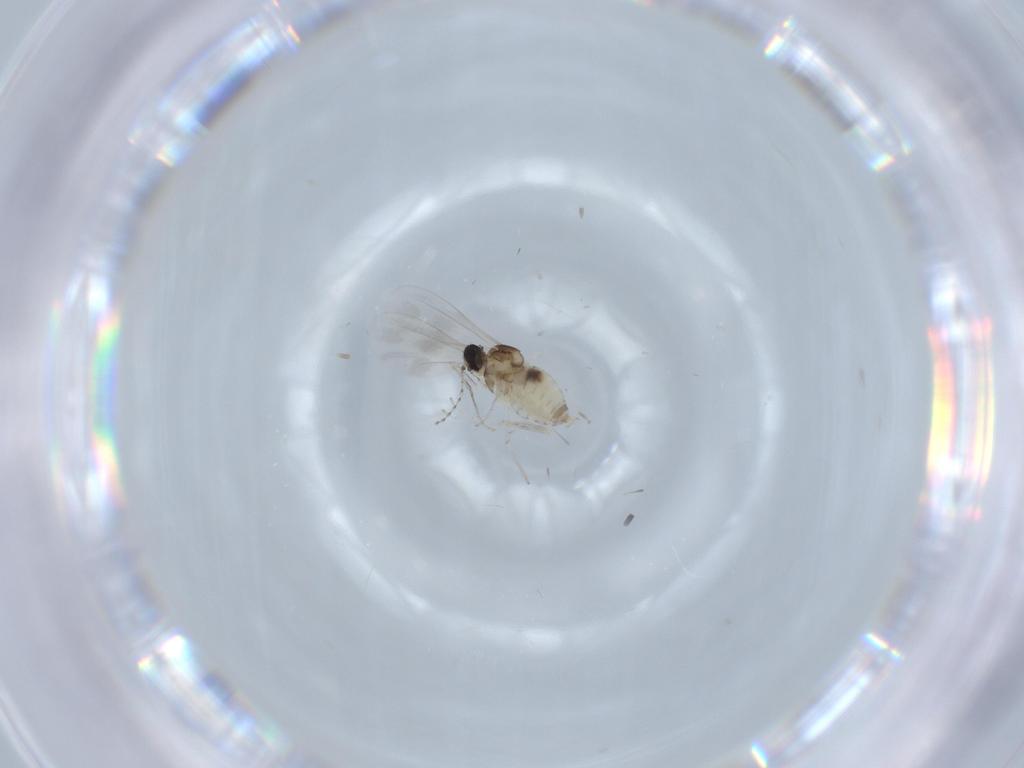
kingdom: Animalia
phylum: Arthropoda
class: Insecta
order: Diptera
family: Cecidomyiidae
